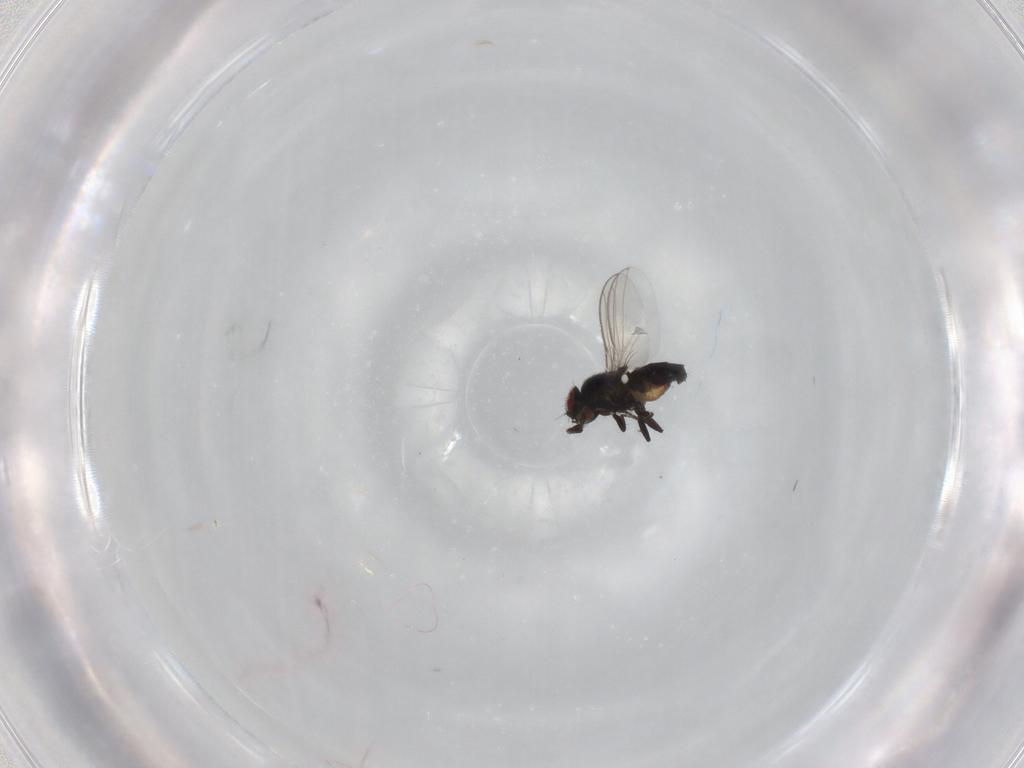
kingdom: Animalia
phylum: Arthropoda
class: Insecta
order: Diptera
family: Carnidae
